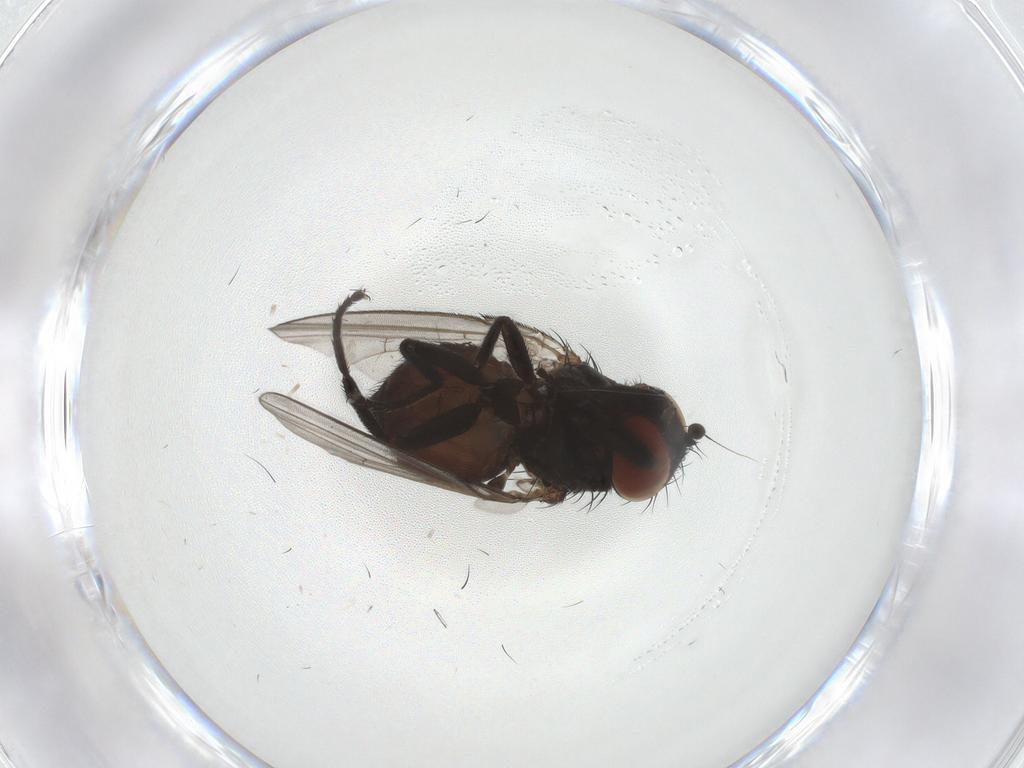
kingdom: Animalia
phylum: Arthropoda
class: Insecta
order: Diptera
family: Milichiidae
